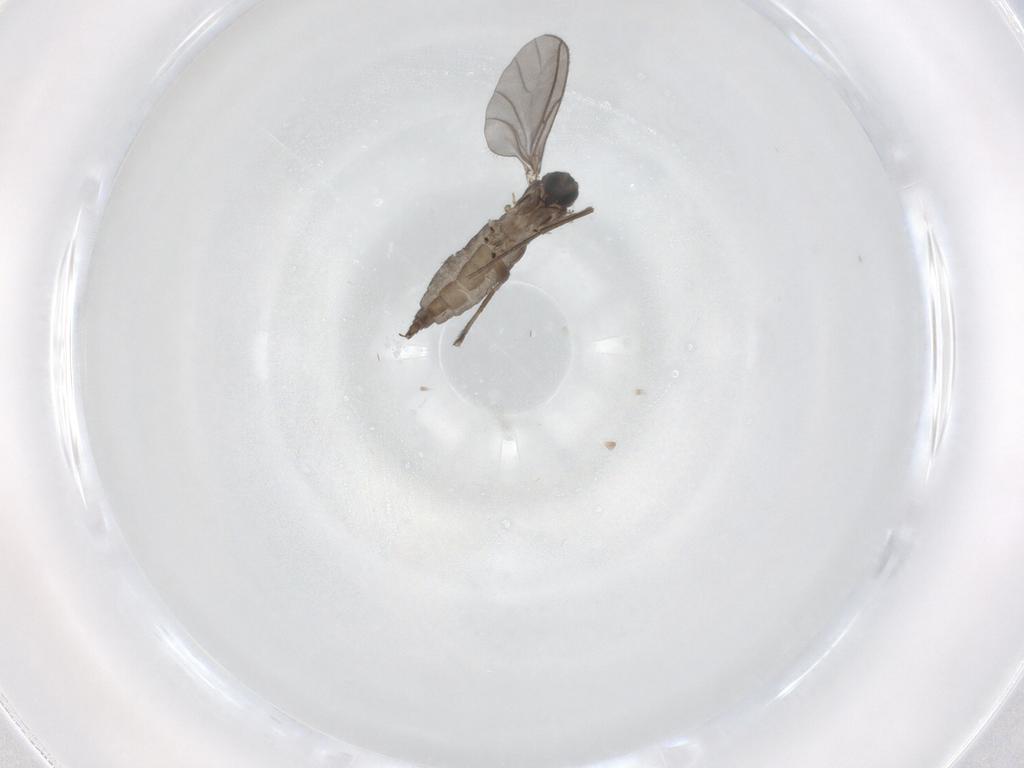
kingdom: Animalia
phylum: Arthropoda
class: Insecta
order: Diptera
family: Sciaridae
